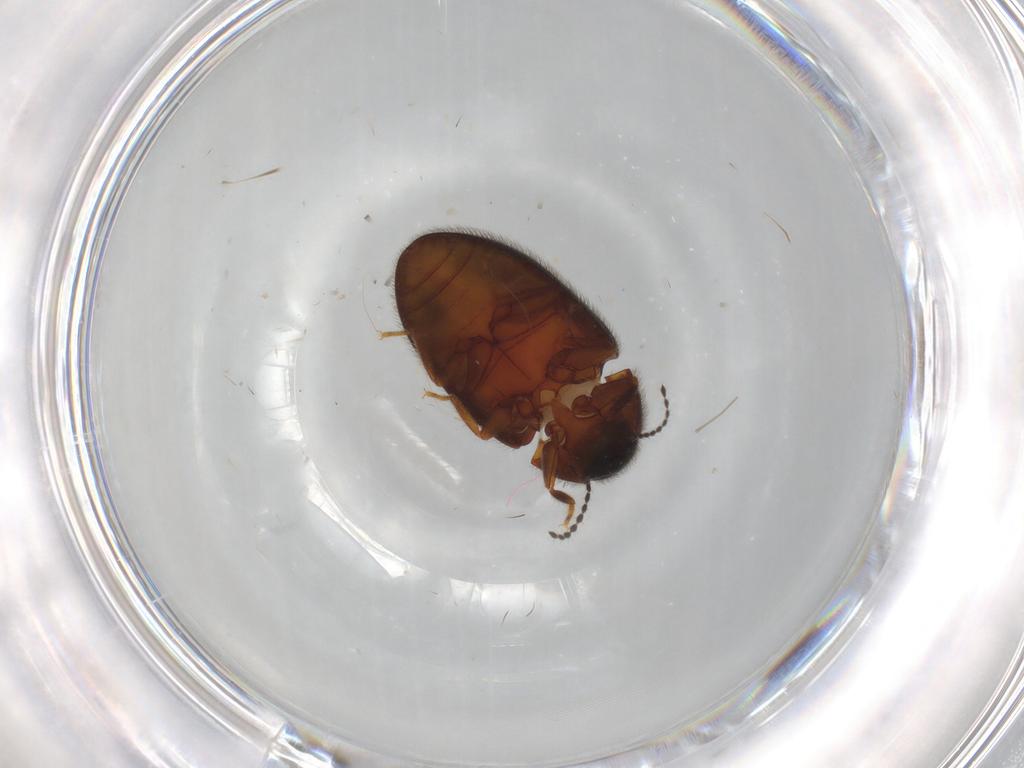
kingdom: Animalia
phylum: Arthropoda
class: Insecta
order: Coleoptera
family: Limnichidae
